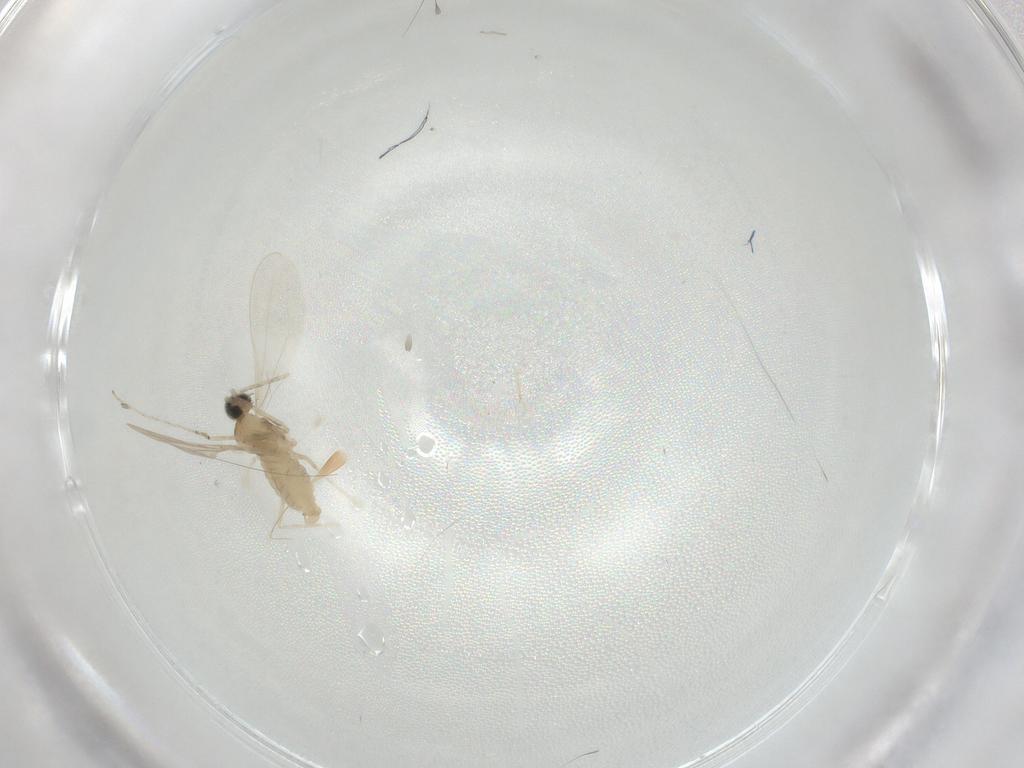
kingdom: Animalia
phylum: Arthropoda
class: Insecta
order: Diptera
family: Cecidomyiidae
